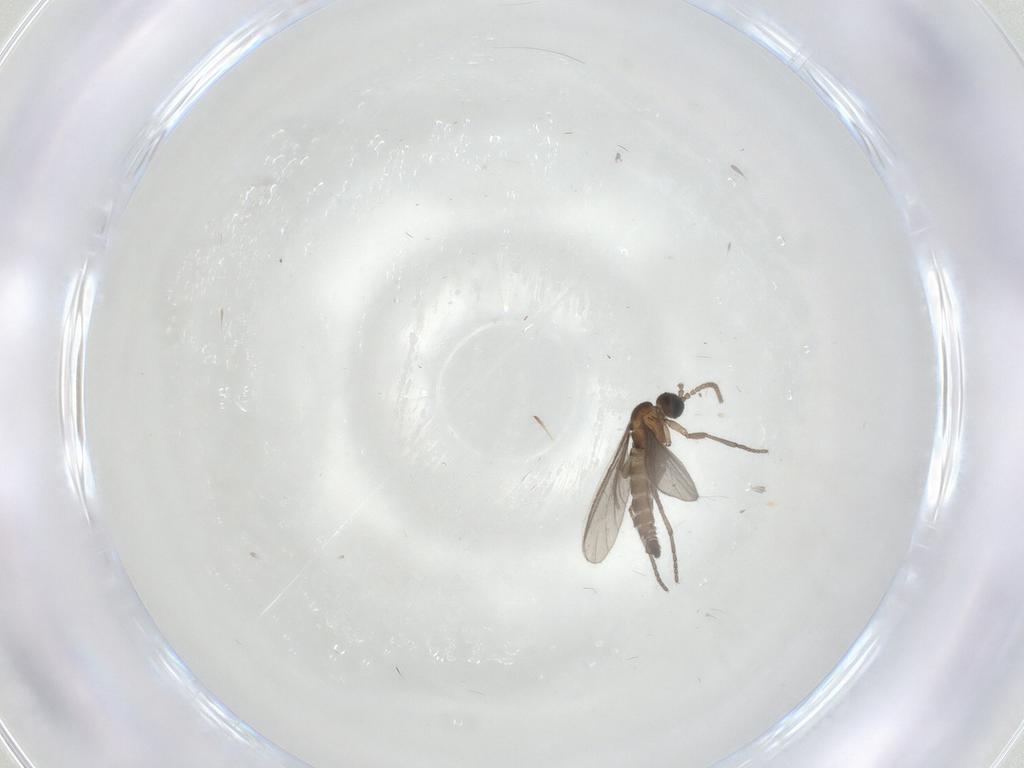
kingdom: Animalia
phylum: Arthropoda
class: Insecta
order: Diptera
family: Sciaridae
